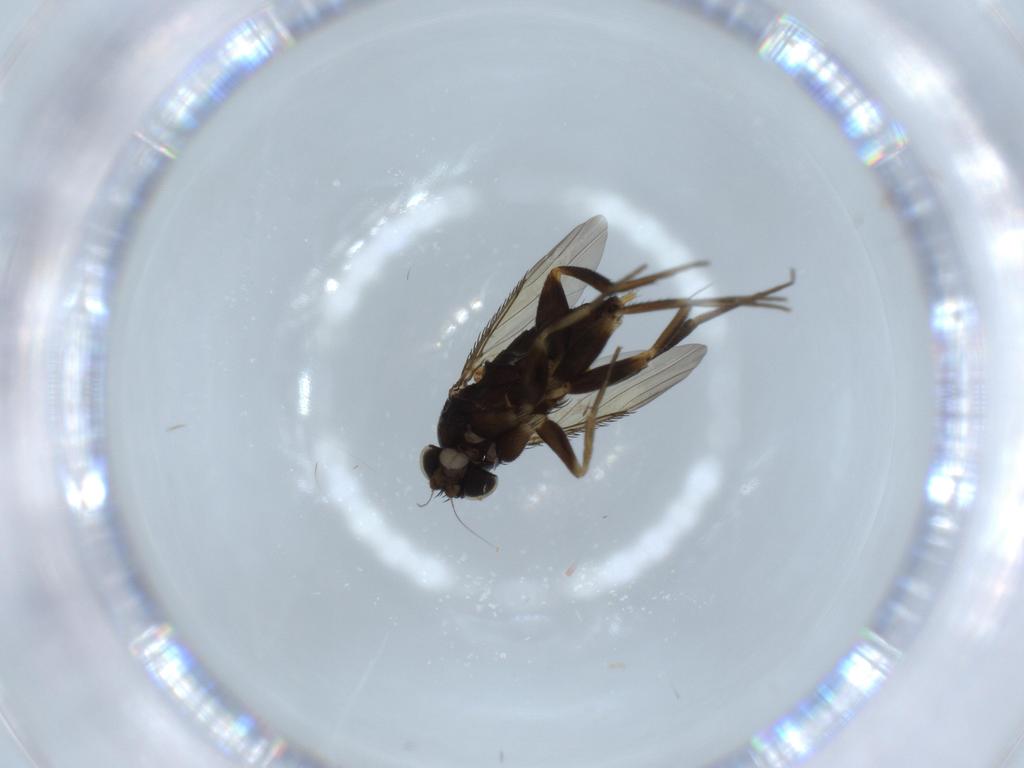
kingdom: Animalia
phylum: Arthropoda
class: Insecta
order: Diptera
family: Phoridae
